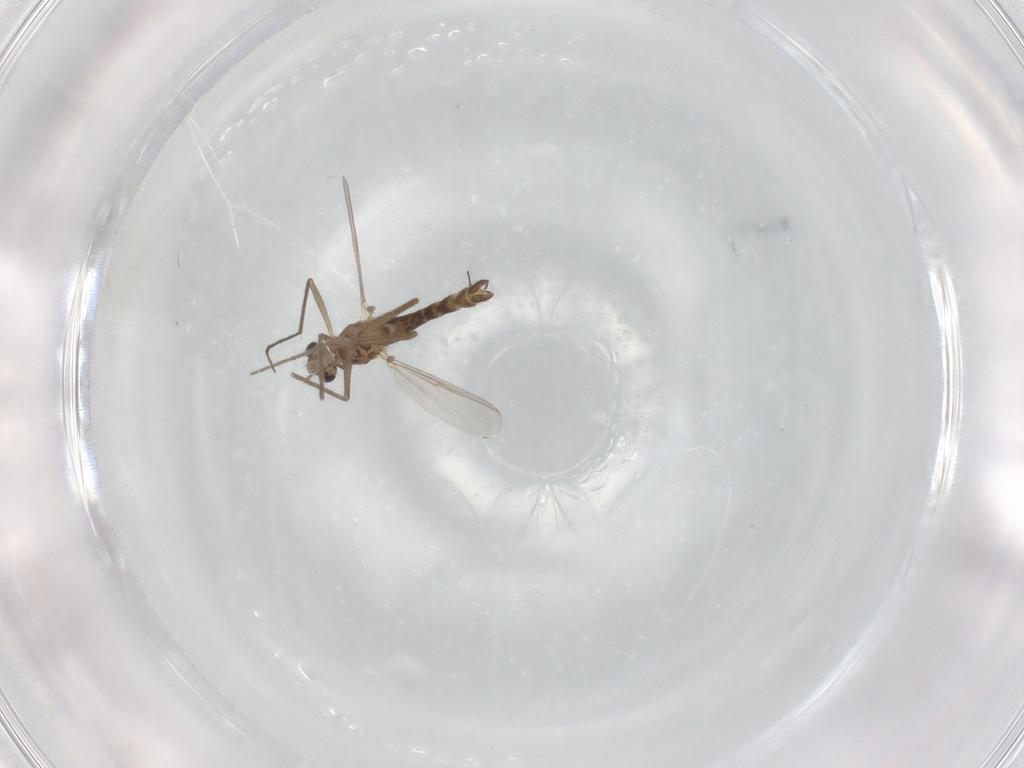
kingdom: Animalia
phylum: Arthropoda
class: Insecta
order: Diptera
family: Chironomidae
